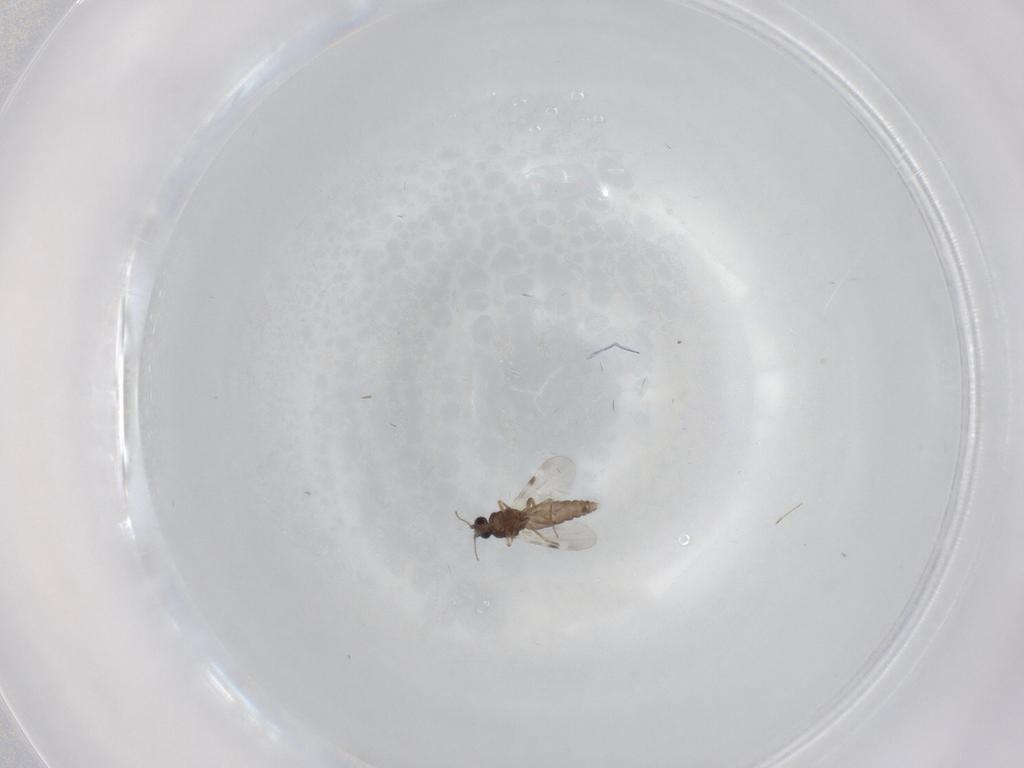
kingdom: Animalia
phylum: Arthropoda
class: Insecta
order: Diptera
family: Chironomidae
